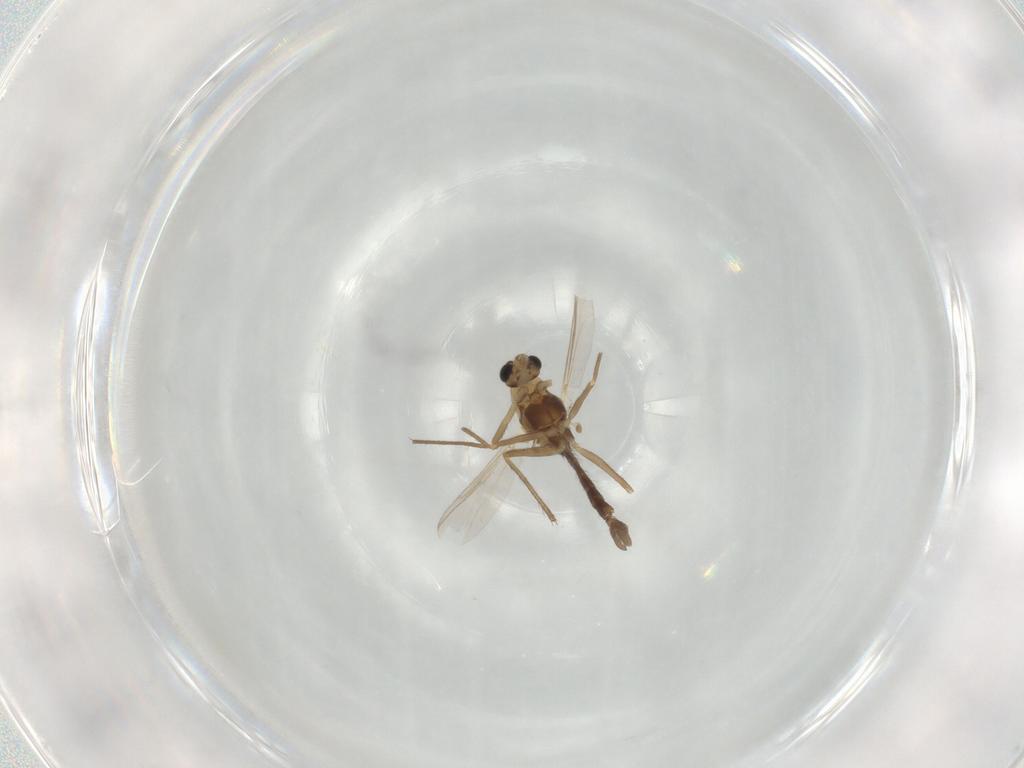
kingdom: Animalia
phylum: Arthropoda
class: Insecta
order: Diptera
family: Chironomidae
